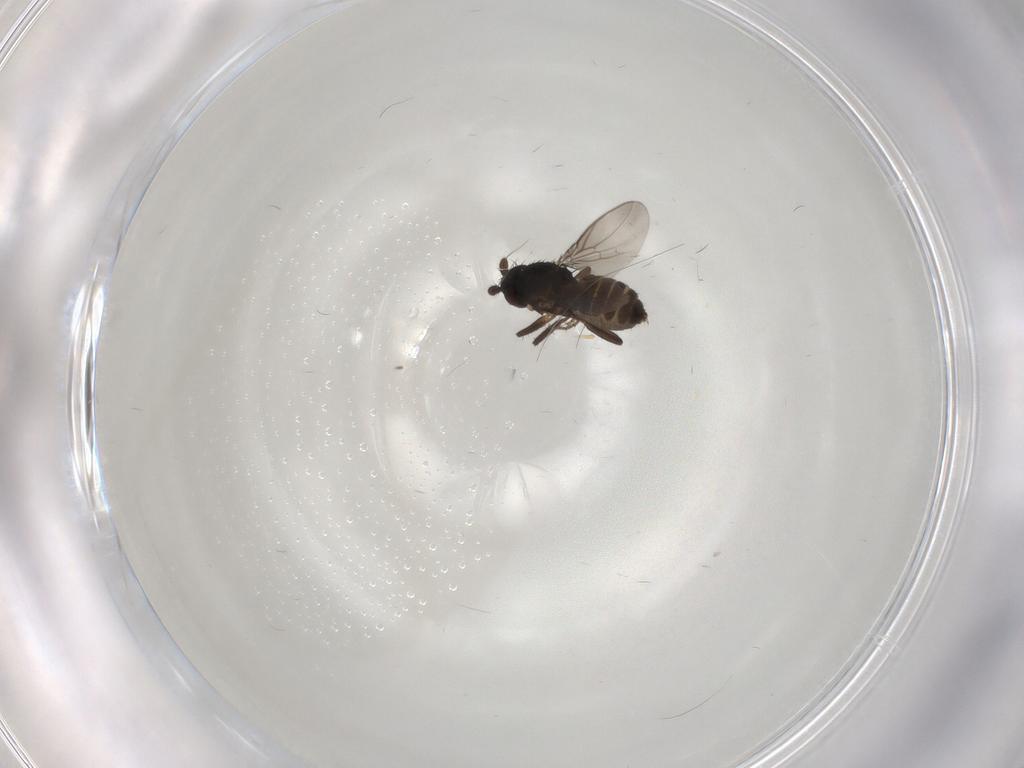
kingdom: Animalia
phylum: Arthropoda
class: Insecta
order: Diptera
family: Sphaeroceridae
